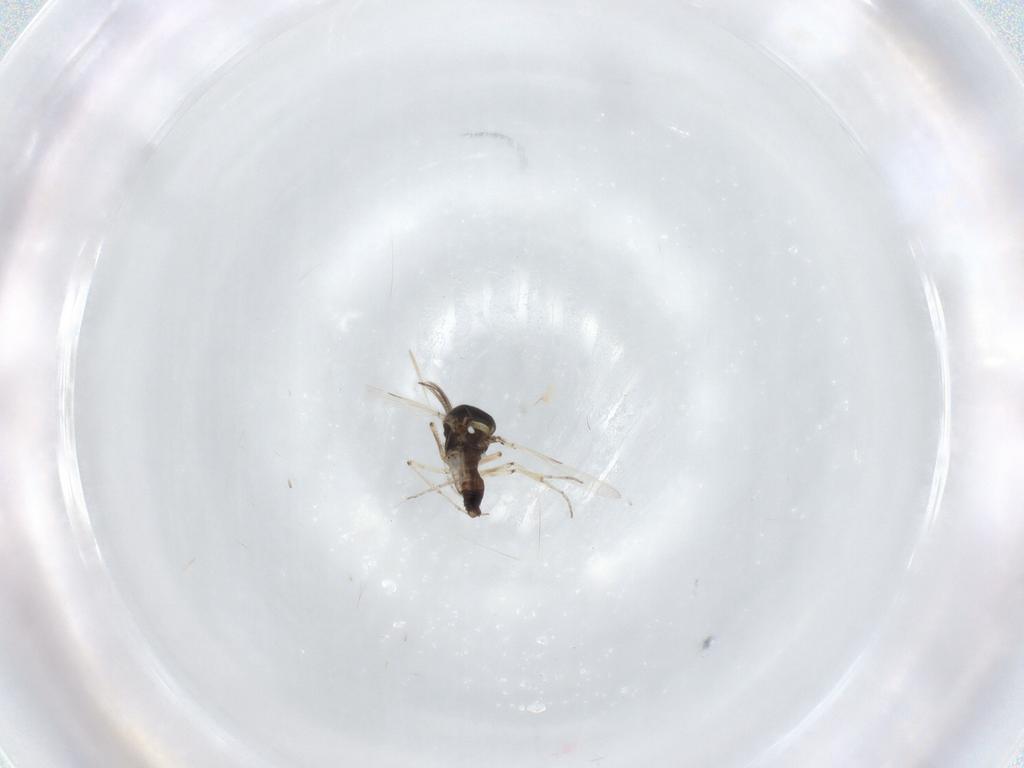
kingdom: Animalia
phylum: Arthropoda
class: Insecta
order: Diptera
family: Ceratopogonidae
